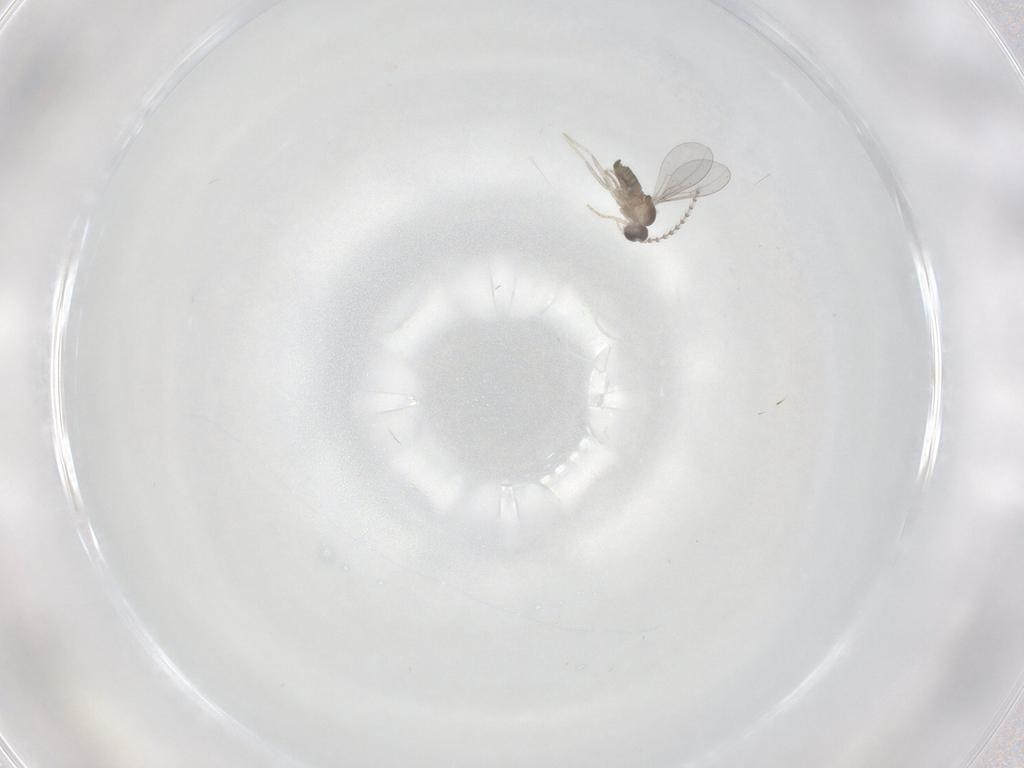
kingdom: Animalia
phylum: Arthropoda
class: Insecta
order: Diptera
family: Cecidomyiidae
